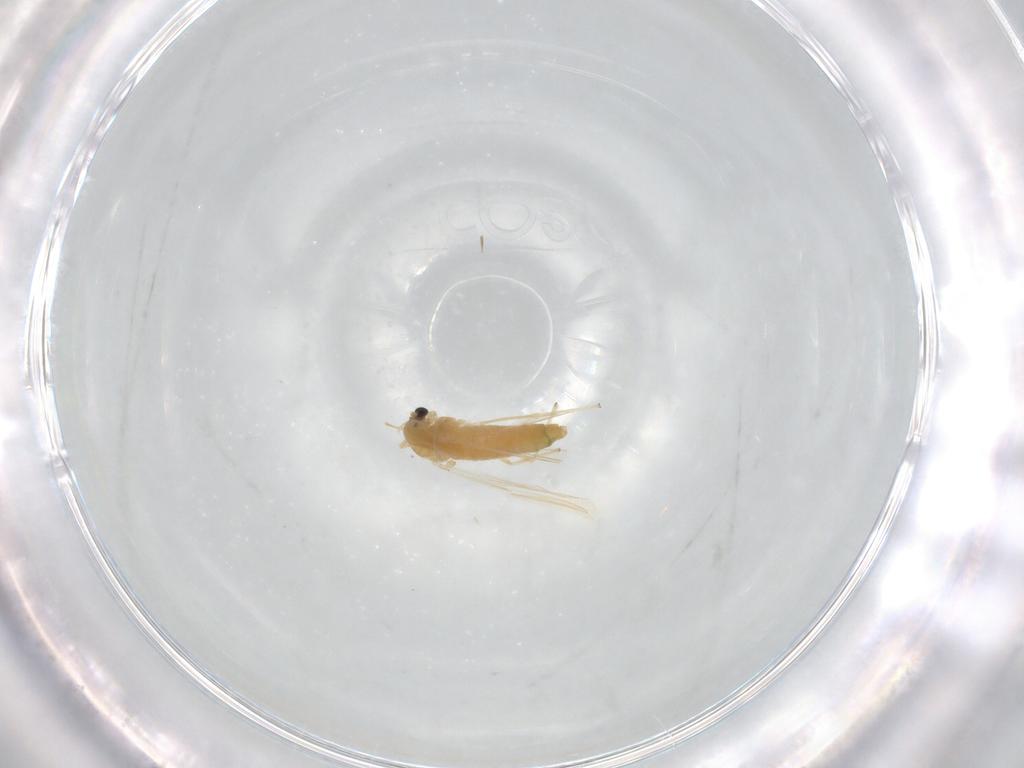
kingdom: Animalia
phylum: Arthropoda
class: Insecta
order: Diptera
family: Chironomidae
